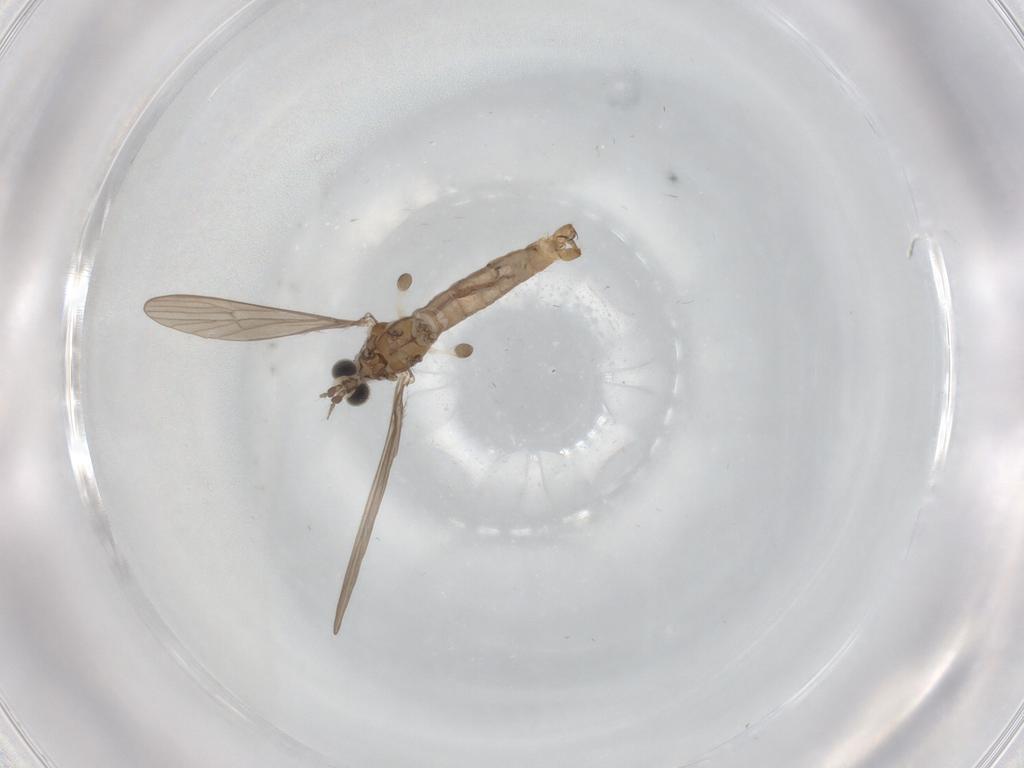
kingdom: Animalia
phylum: Arthropoda
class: Insecta
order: Diptera
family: Limoniidae
